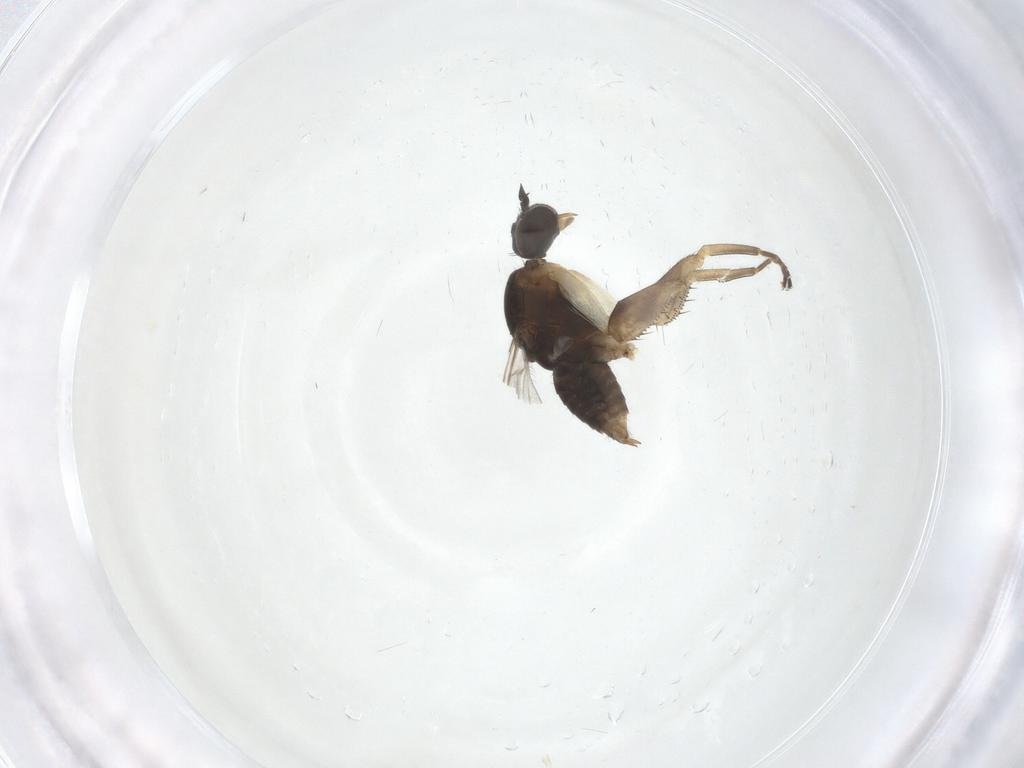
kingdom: Animalia
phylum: Arthropoda
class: Insecta
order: Diptera
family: Empididae
